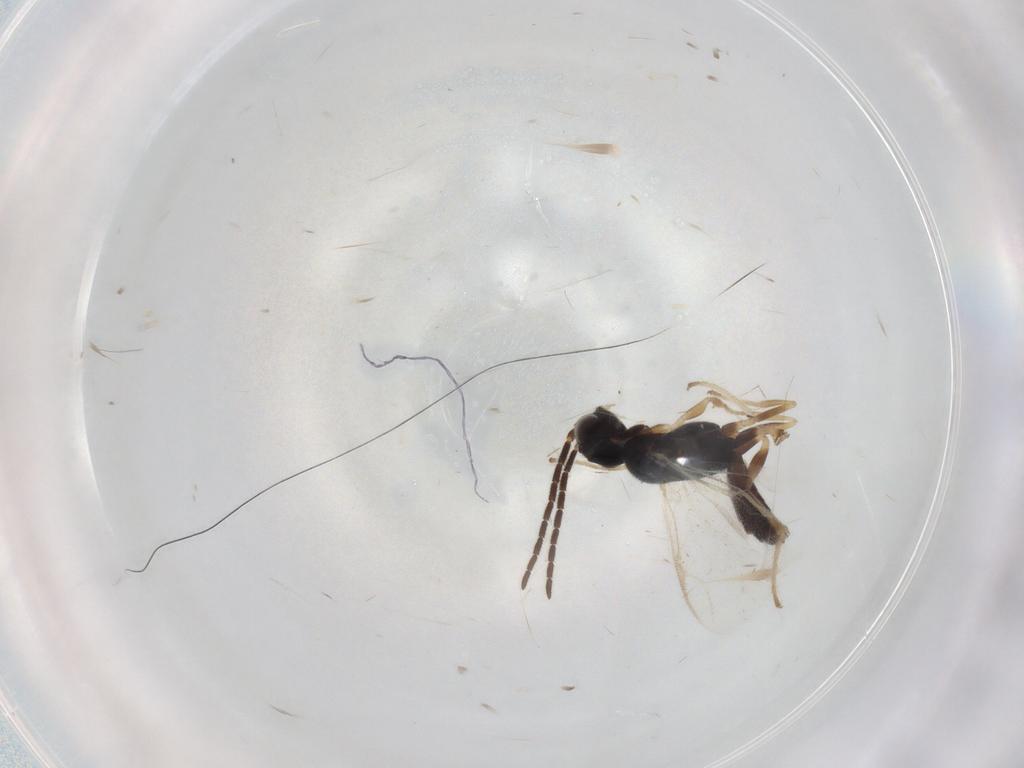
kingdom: Animalia
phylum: Arthropoda
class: Insecta
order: Hymenoptera
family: Dryinidae
